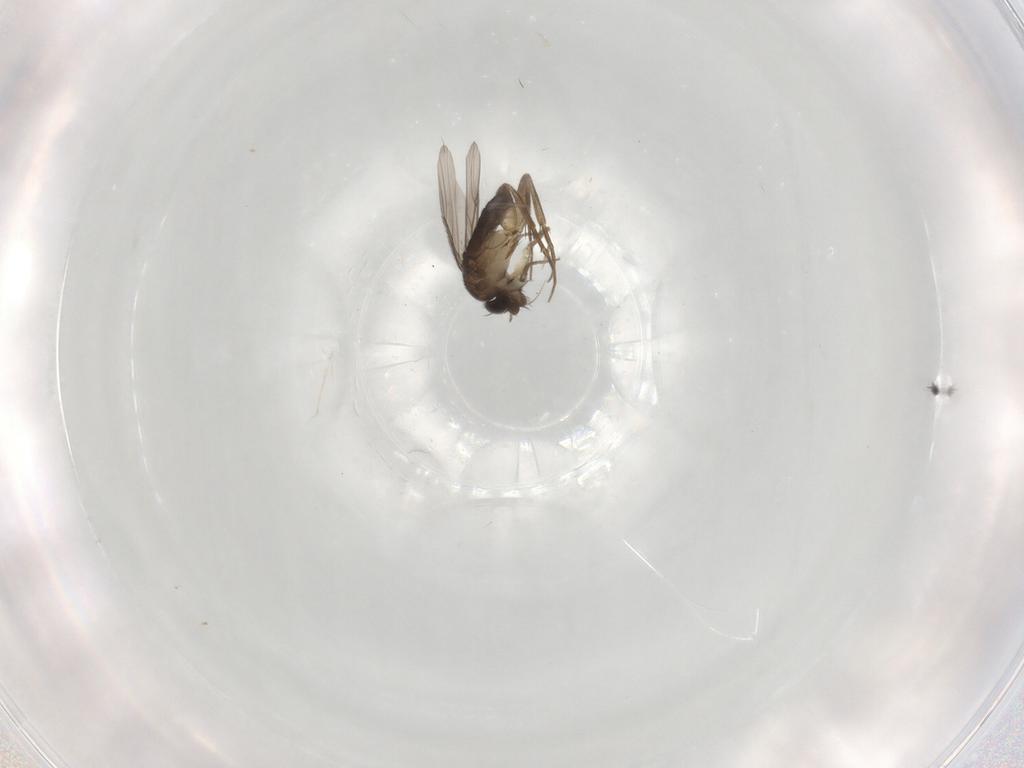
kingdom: Animalia
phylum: Arthropoda
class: Insecta
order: Diptera
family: Phoridae
